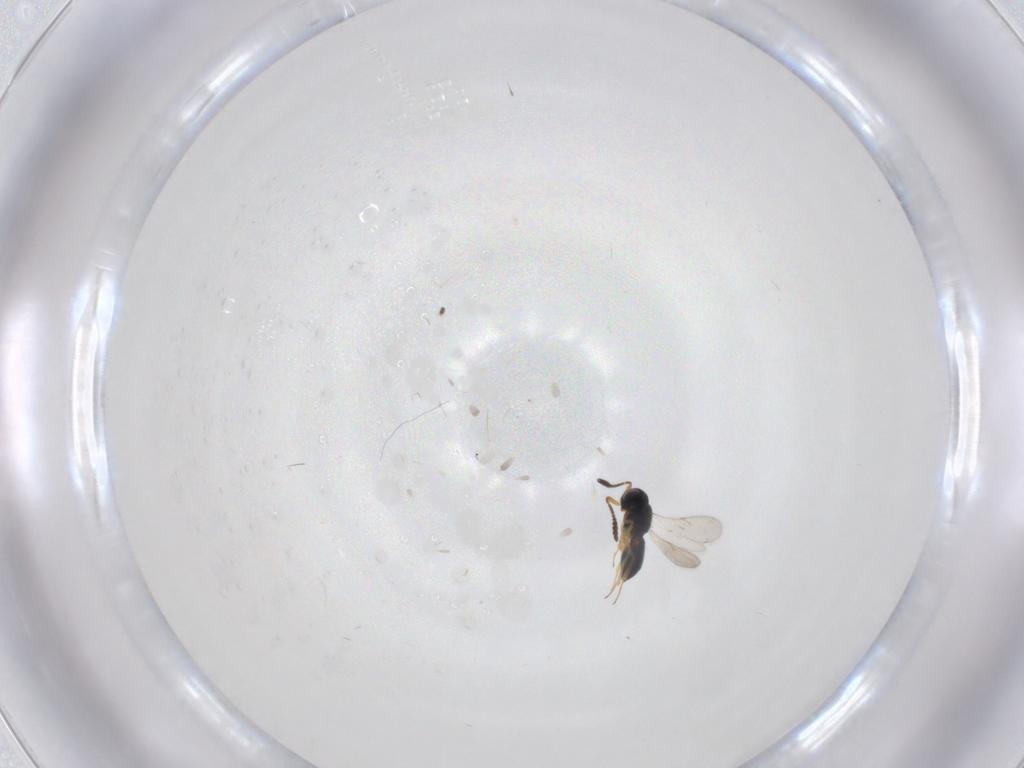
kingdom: Animalia
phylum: Arthropoda
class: Insecta
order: Hymenoptera
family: Scelionidae
